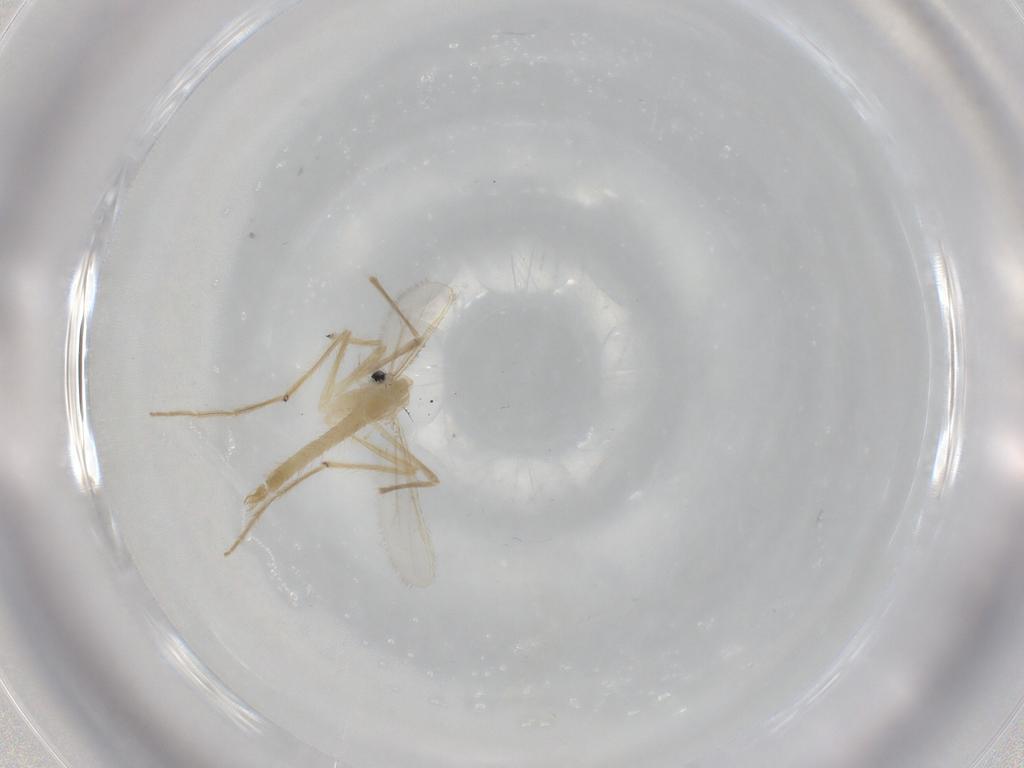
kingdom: Animalia
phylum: Arthropoda
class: Insecta
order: Diptera
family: Chironomidae
